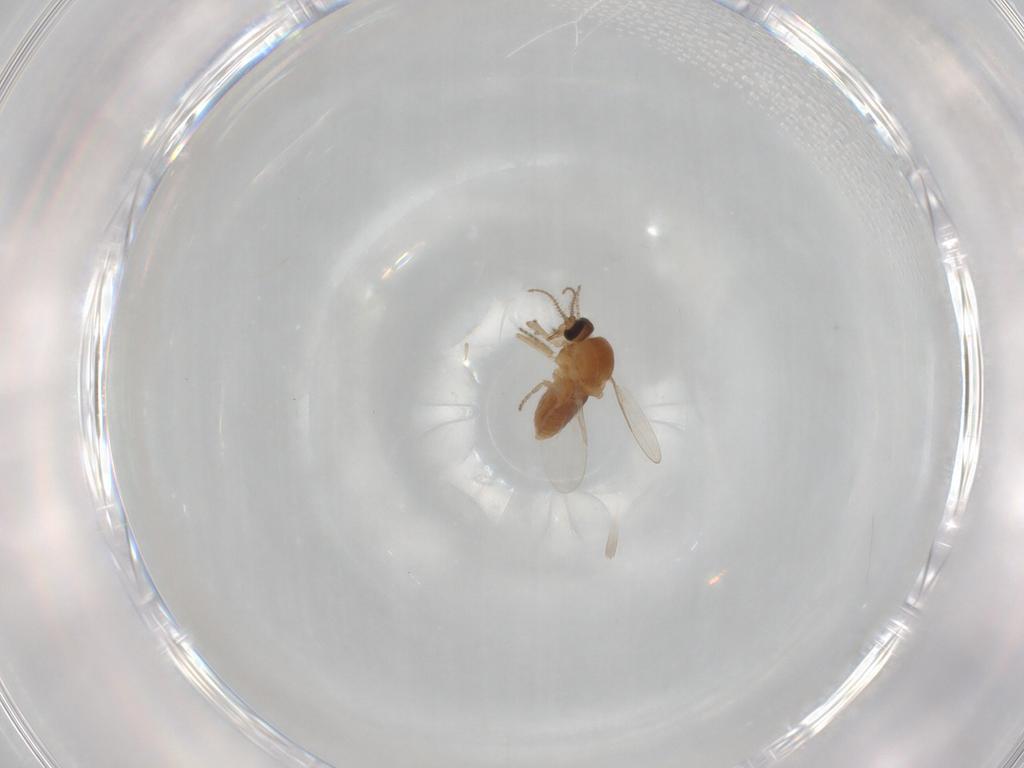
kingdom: Animalia
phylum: Arthropoda
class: Insecta
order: Diptera
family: Ceratopogonidae
